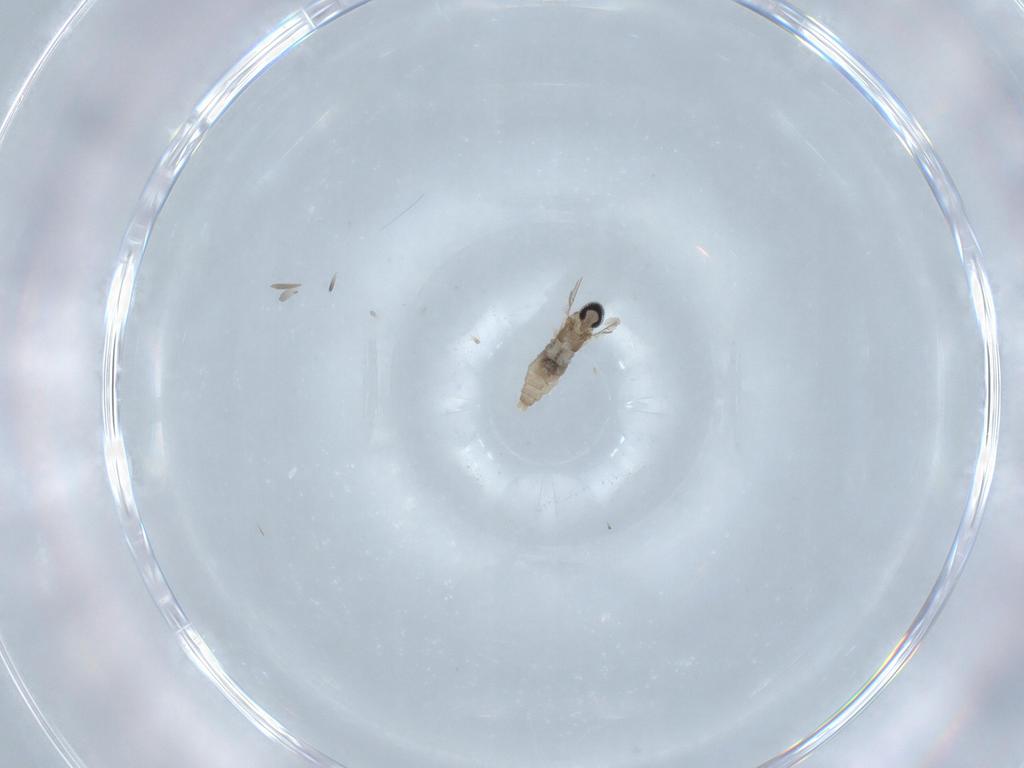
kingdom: Animalia
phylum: Arthropoda
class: Insecta
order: Diptera
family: Cecidomyiidae
